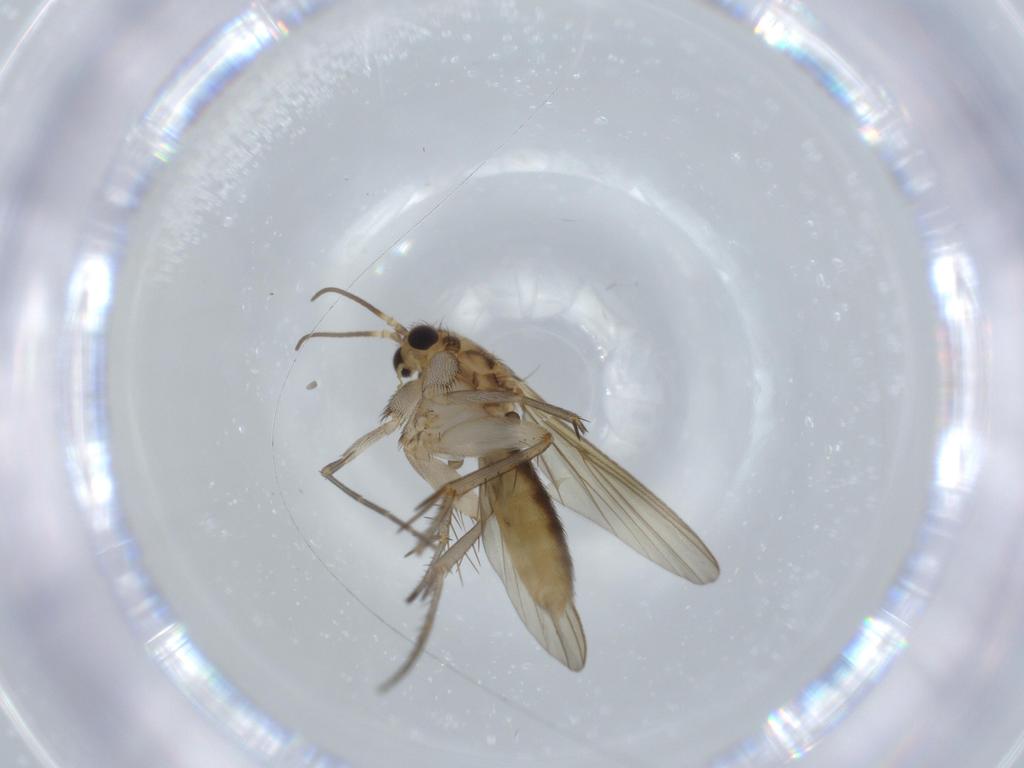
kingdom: Animalia
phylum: Arthropoda
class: Insecta
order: Diptera
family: Mycetophilidae
